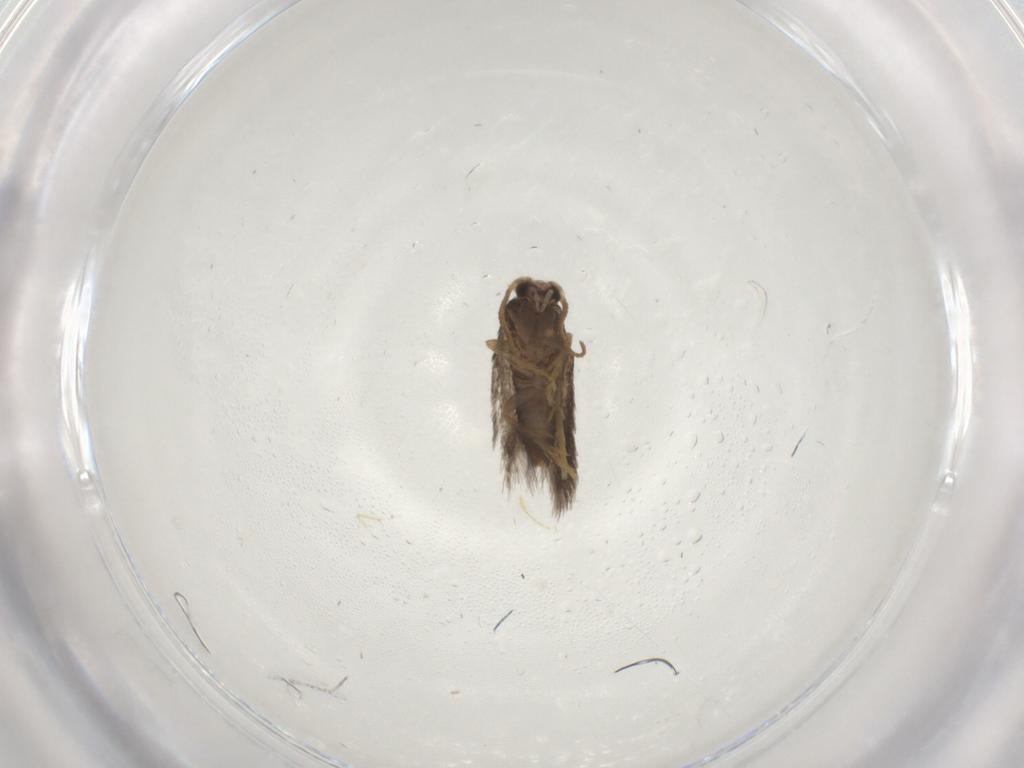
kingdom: Animalia
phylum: Arthropoda
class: Insecta
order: Lepidoptera
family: Nepticulidae
